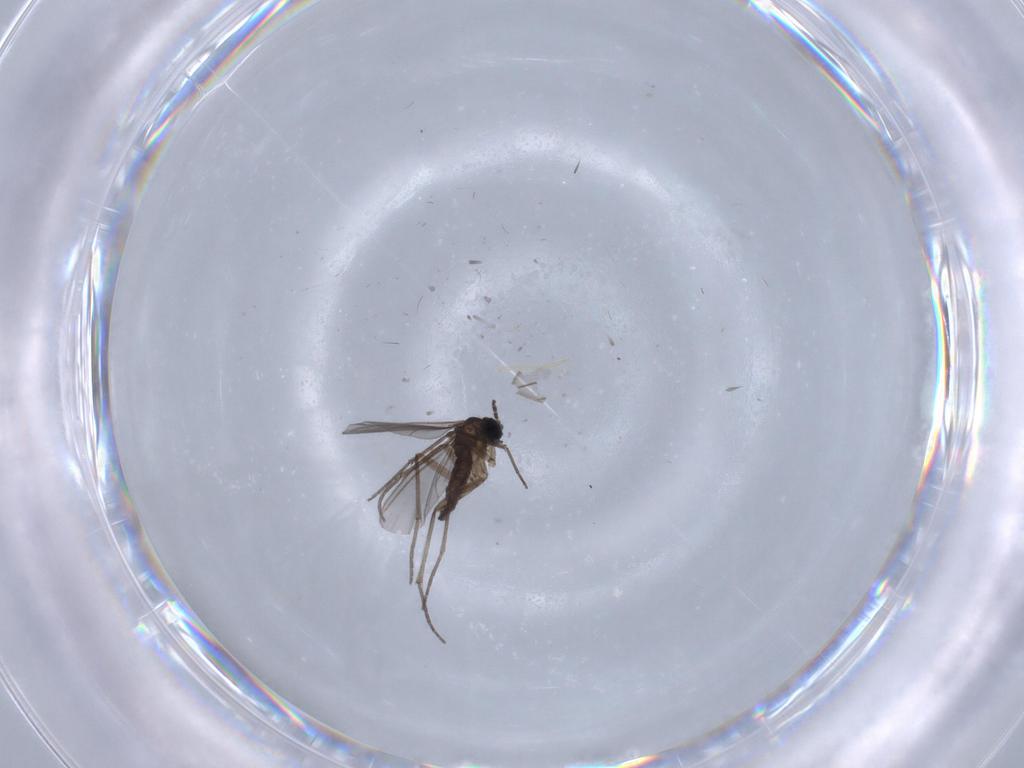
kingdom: Animalia
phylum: Arthropoda
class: Insecta
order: Diptera
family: Sciaridae
